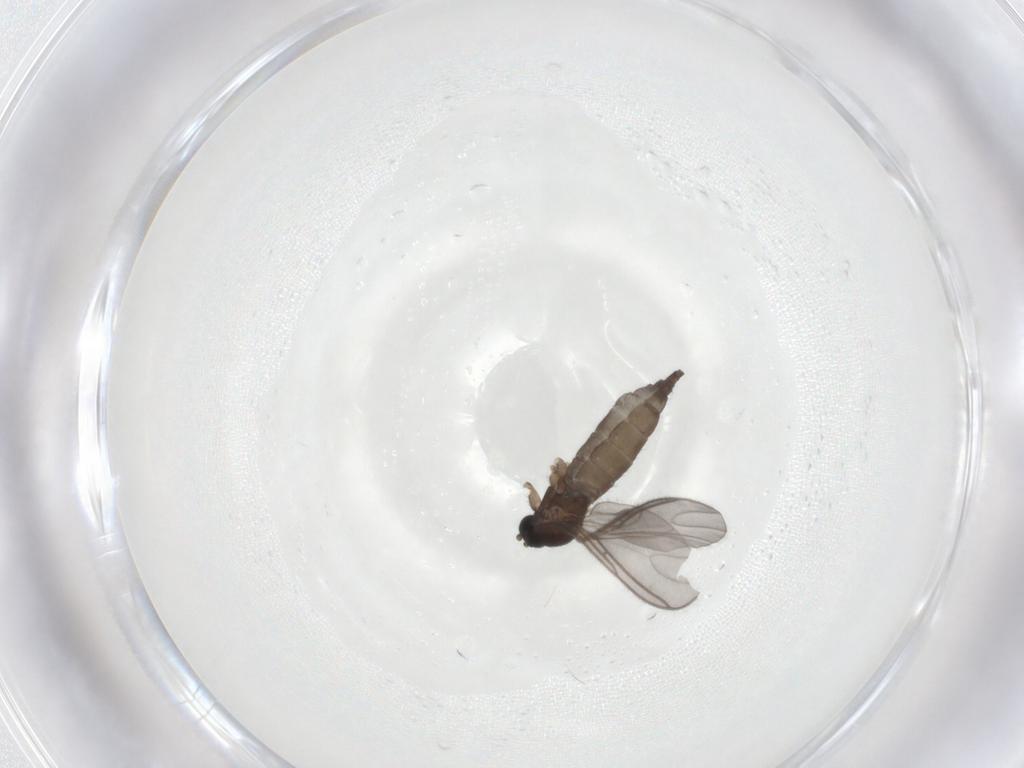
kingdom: Animalia
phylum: Arthropoda
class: Insecta
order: Diptera
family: Sciaridae
